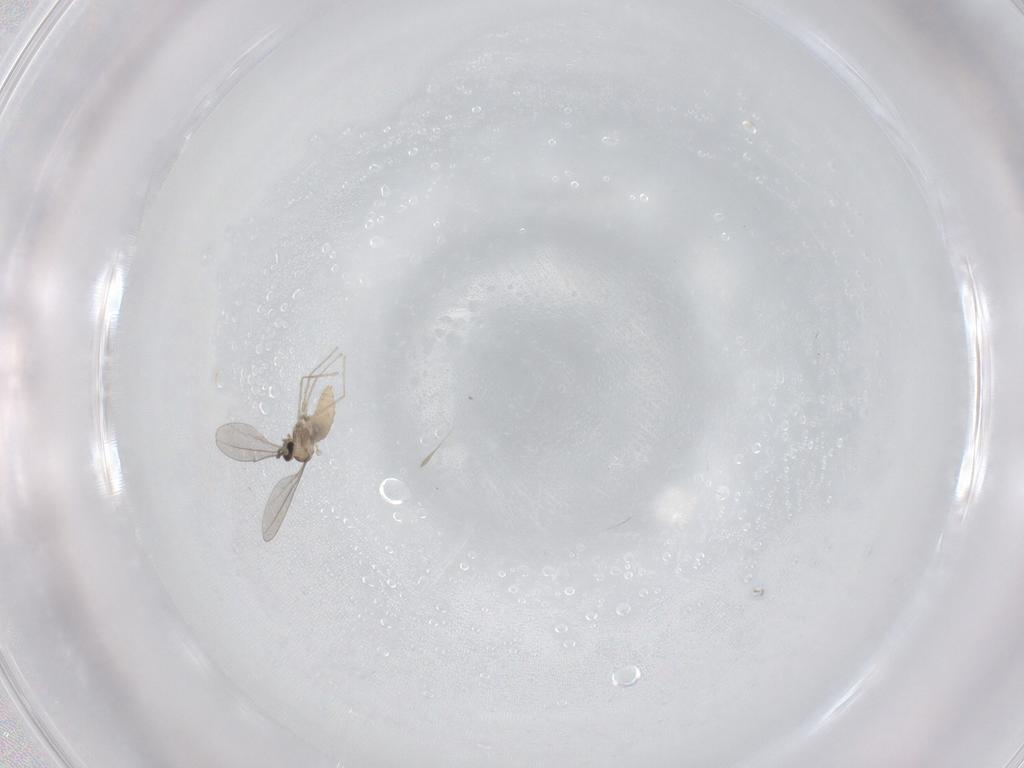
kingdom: Animalia
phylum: Arthropoda
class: Insecta
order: Diptera
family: Cecidomyiidae
